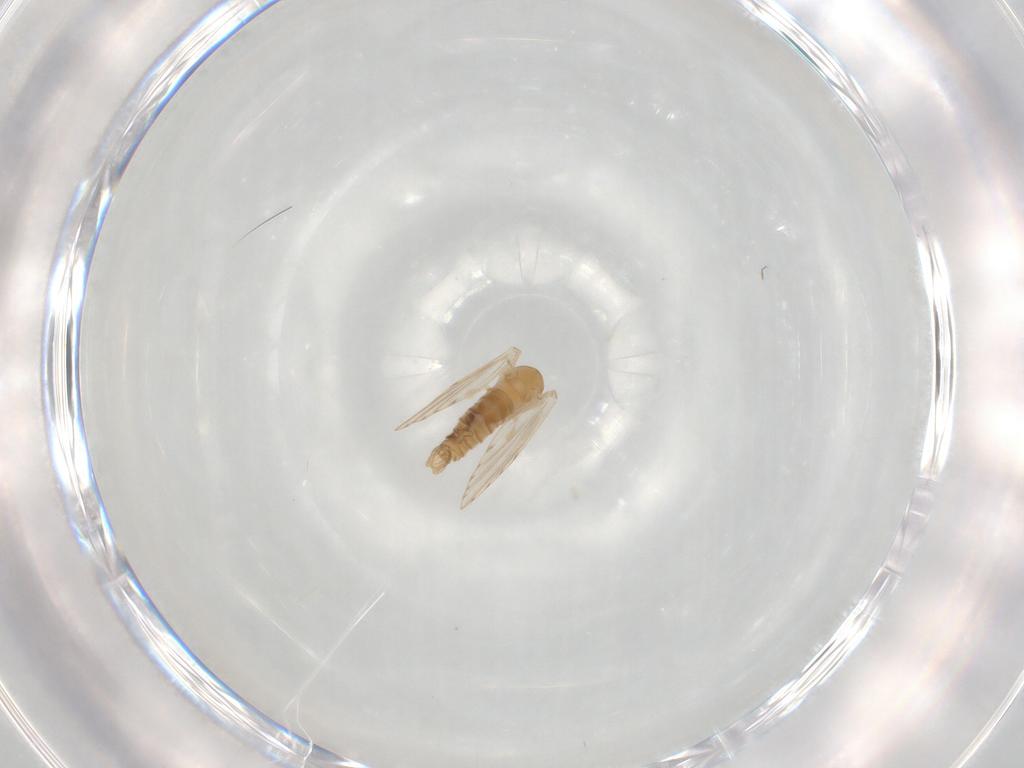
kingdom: Animalia
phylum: Arthropoda
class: Insecta
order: Diptera
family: Psychodidae
